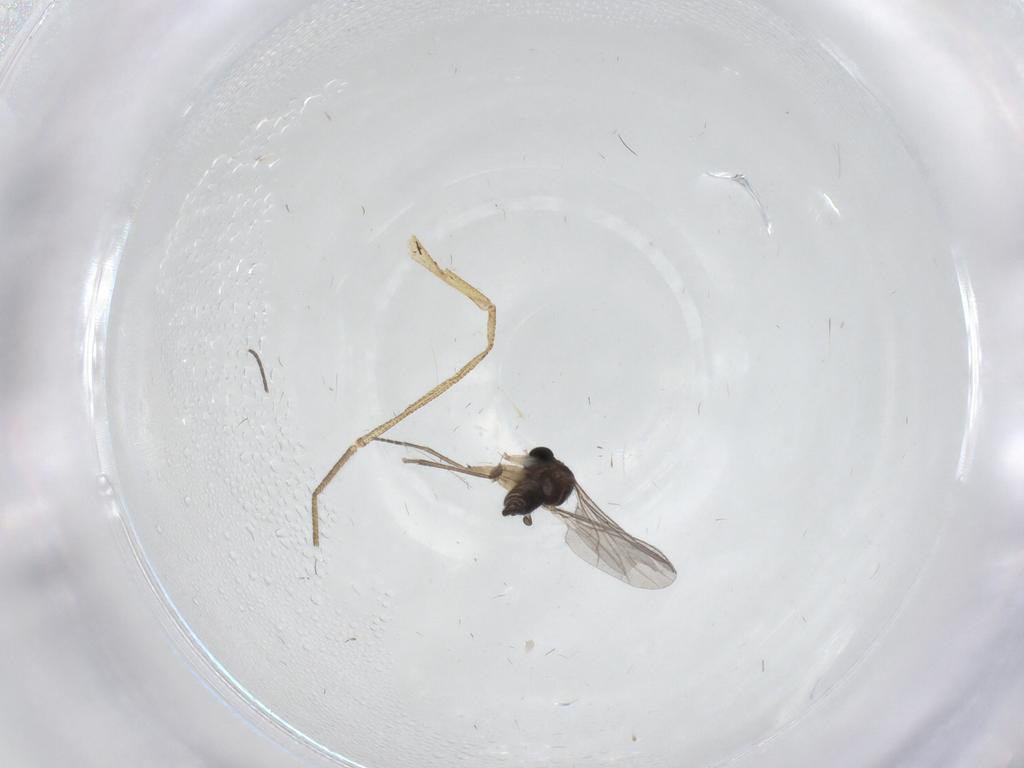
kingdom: Animalia
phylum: Arthropoda
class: Insecta
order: Diptera
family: Sciaridae
